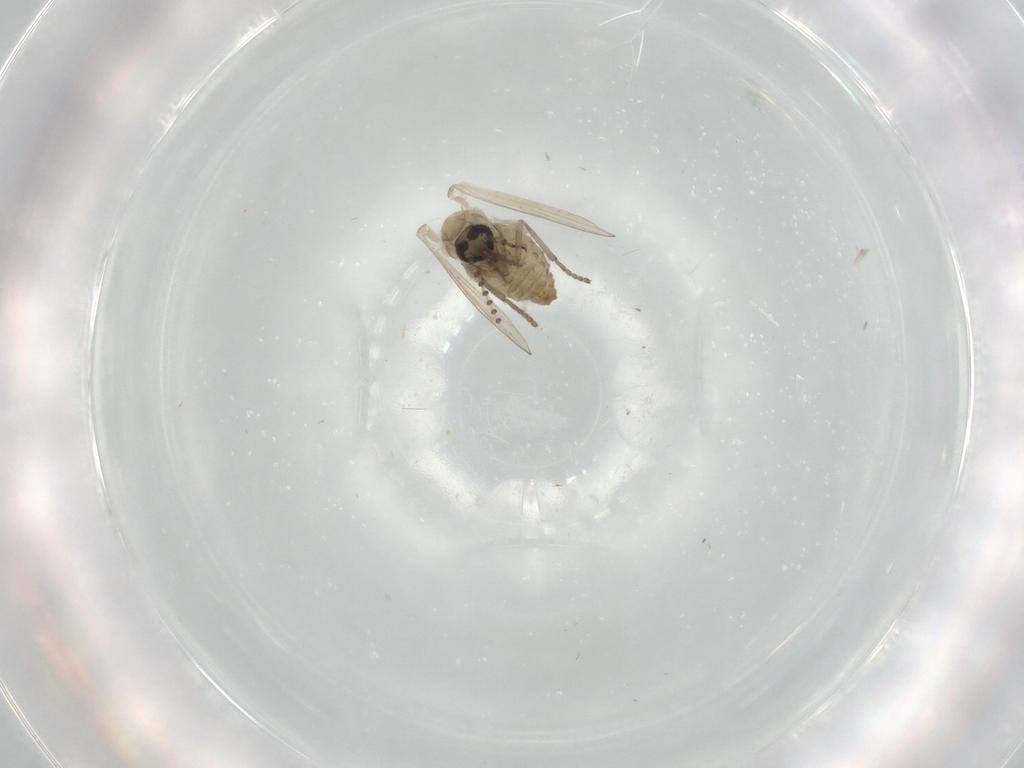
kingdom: Animalia
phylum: Arthropoda
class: Insecta
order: Diptera
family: Psychodidae
